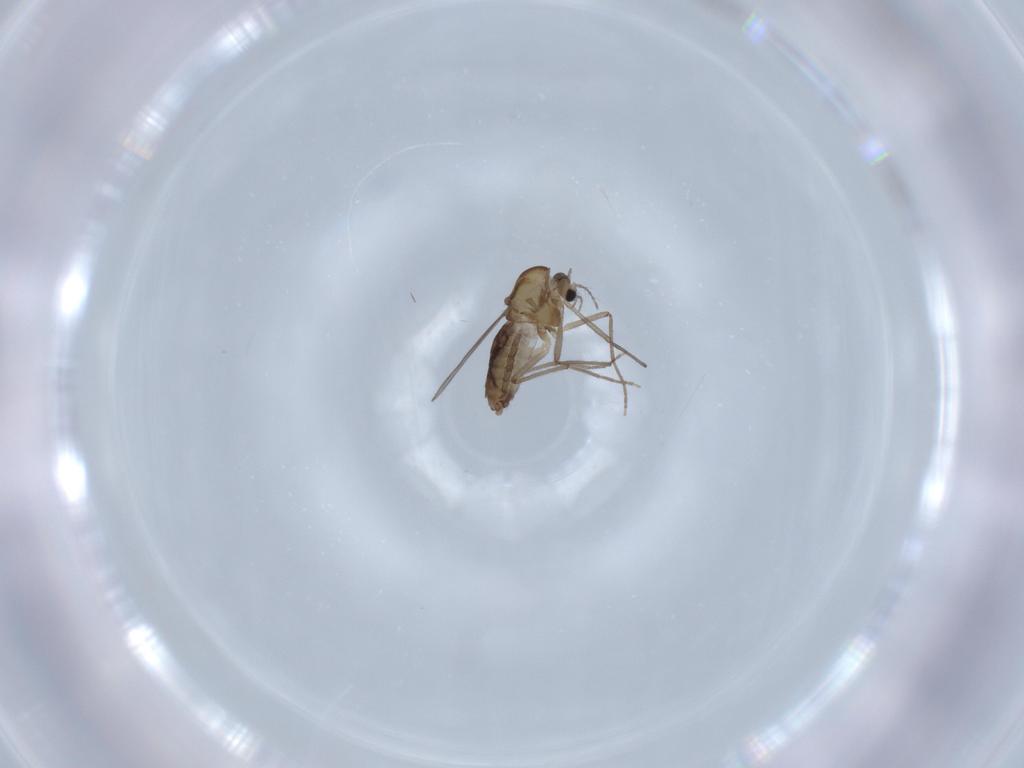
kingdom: Animalia
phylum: Arthropoda
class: Insecta
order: Diptera
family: Chironomidae
